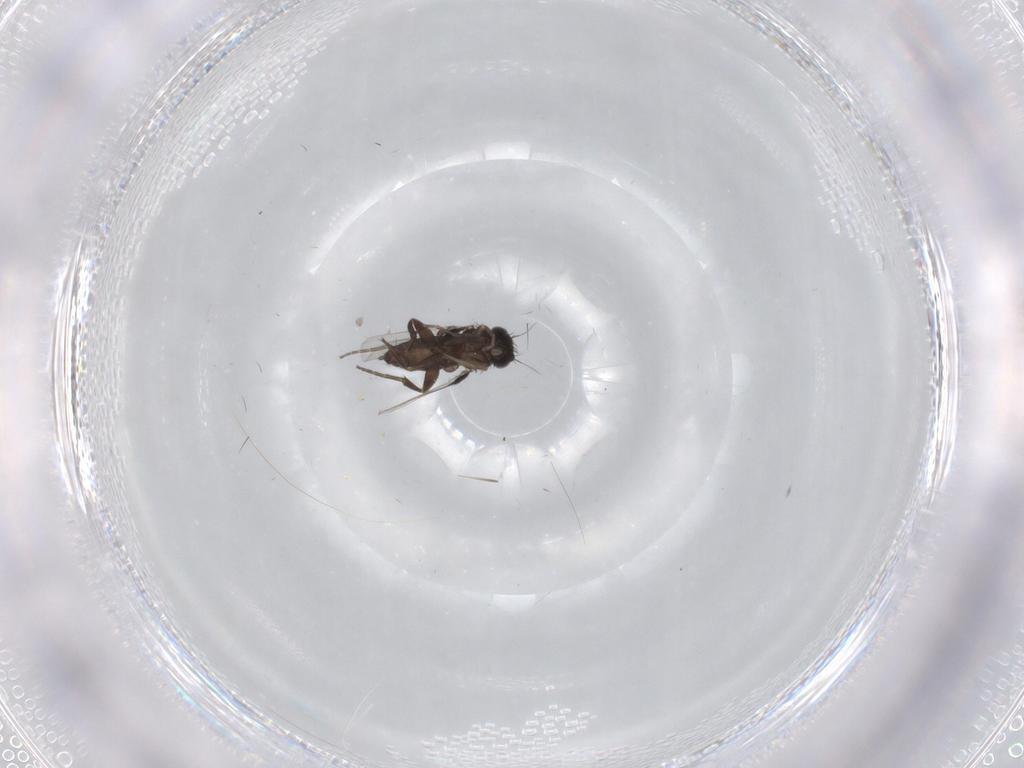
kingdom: Animalia
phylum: Arthropoda
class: Insecta
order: Diptera
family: Phoridae
